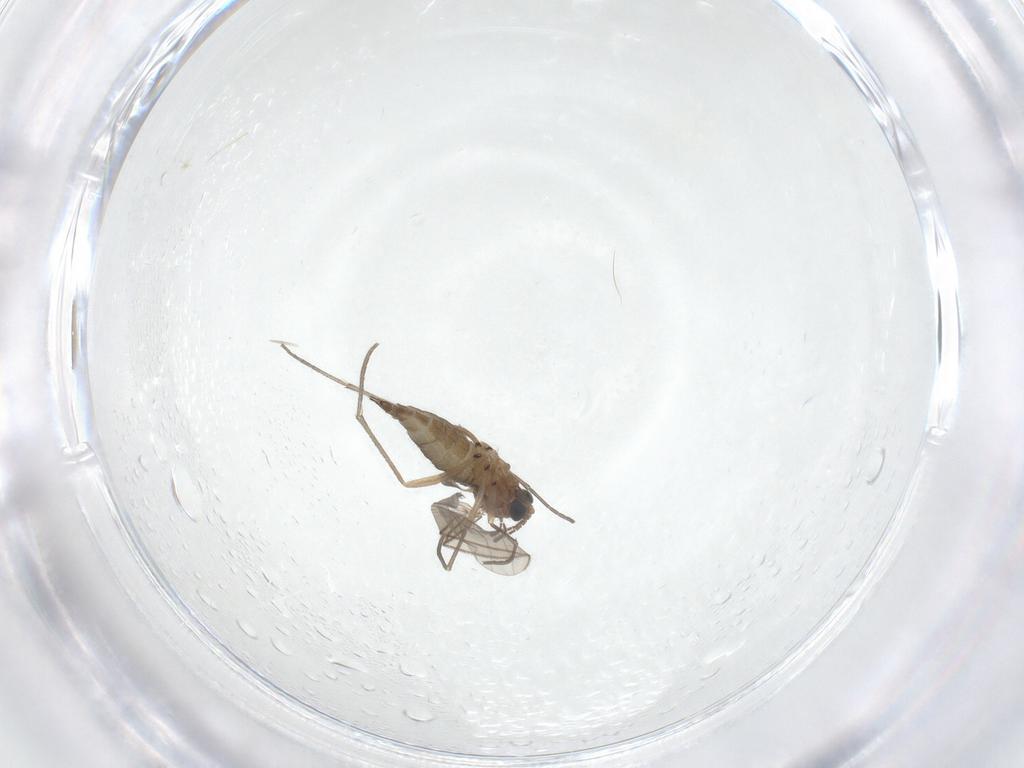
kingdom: Animalia
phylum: Arthropoda
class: Insecta
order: Diptera
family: Sciaridae
